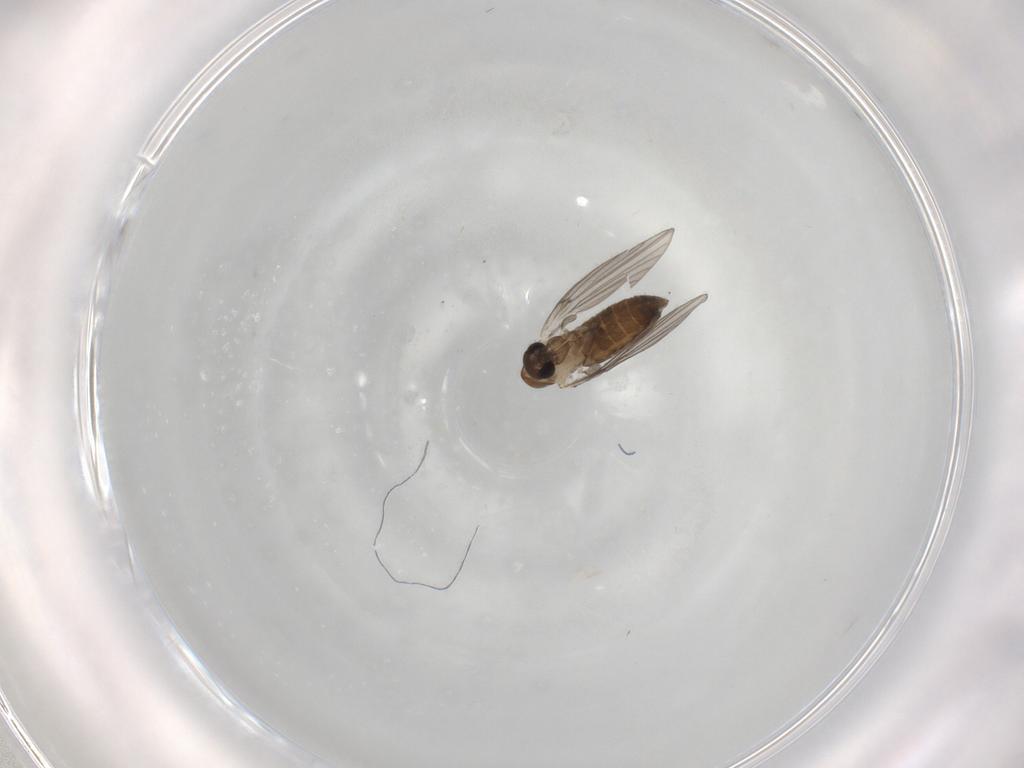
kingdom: Animalia
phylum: Arthropoda
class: Insecta
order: Diptera
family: Psychodidae
